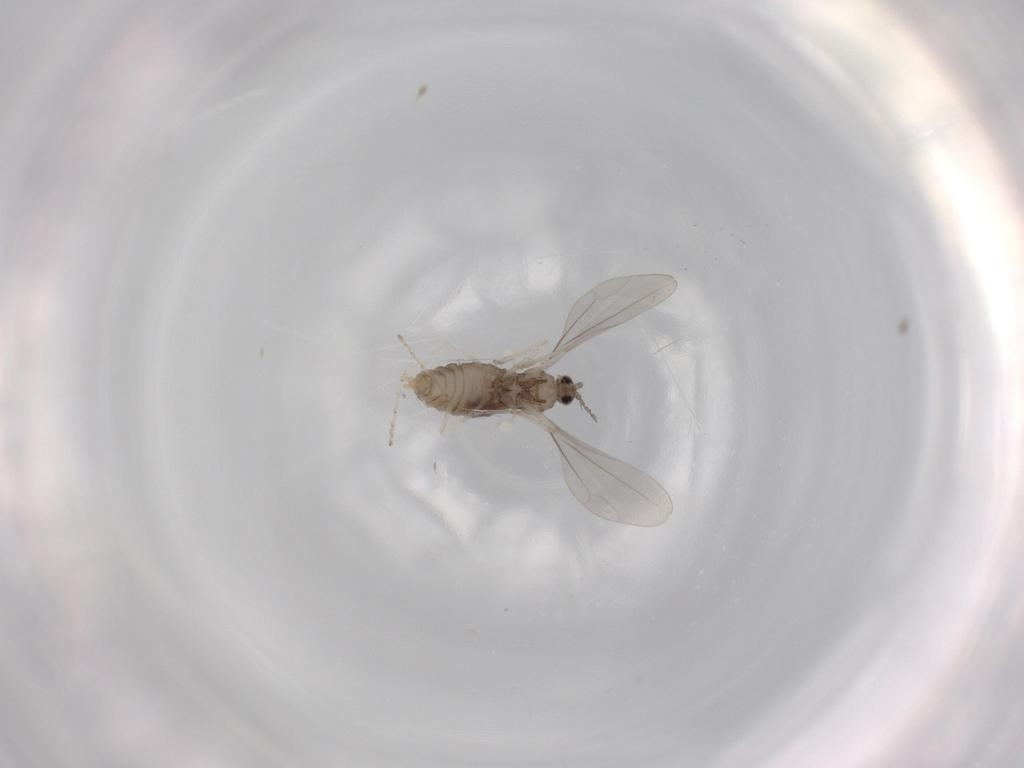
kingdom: Animalia
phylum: Arthropoda
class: Insecta
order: Diptera
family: Cecidomyiidae
